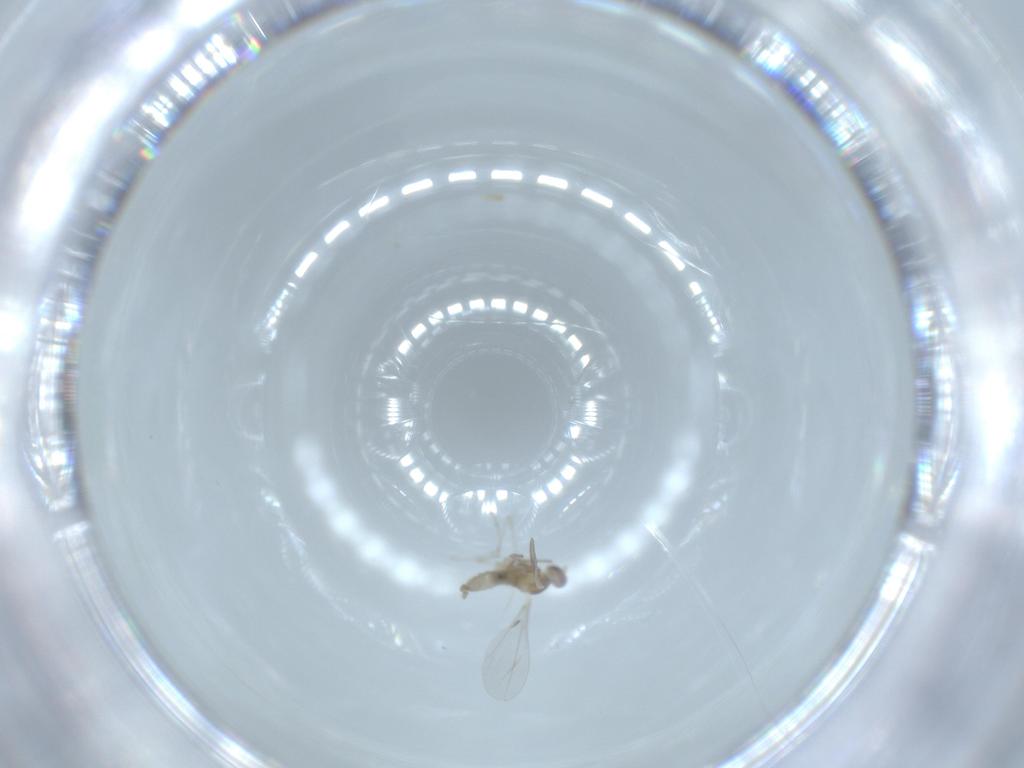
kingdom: Animalia
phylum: Arthropoda
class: Insecta
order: Diptera
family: Cecidomyiidae
